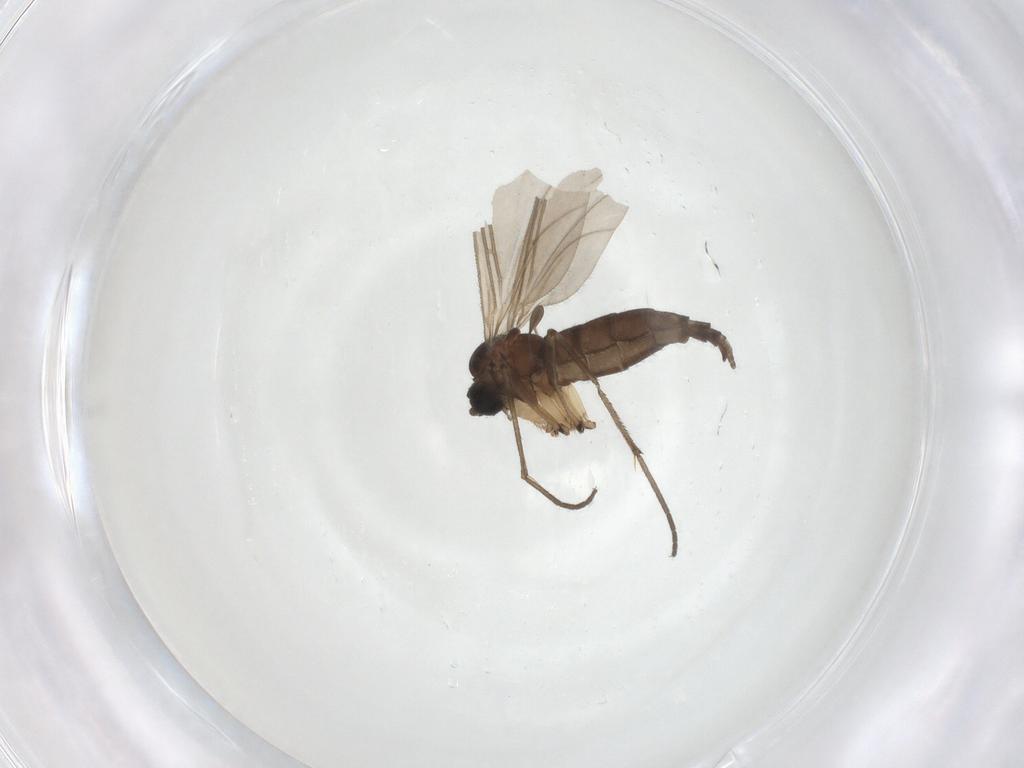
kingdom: Animalia
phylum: Arthropoda
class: Insecta
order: Diptera
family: Sciaridae
